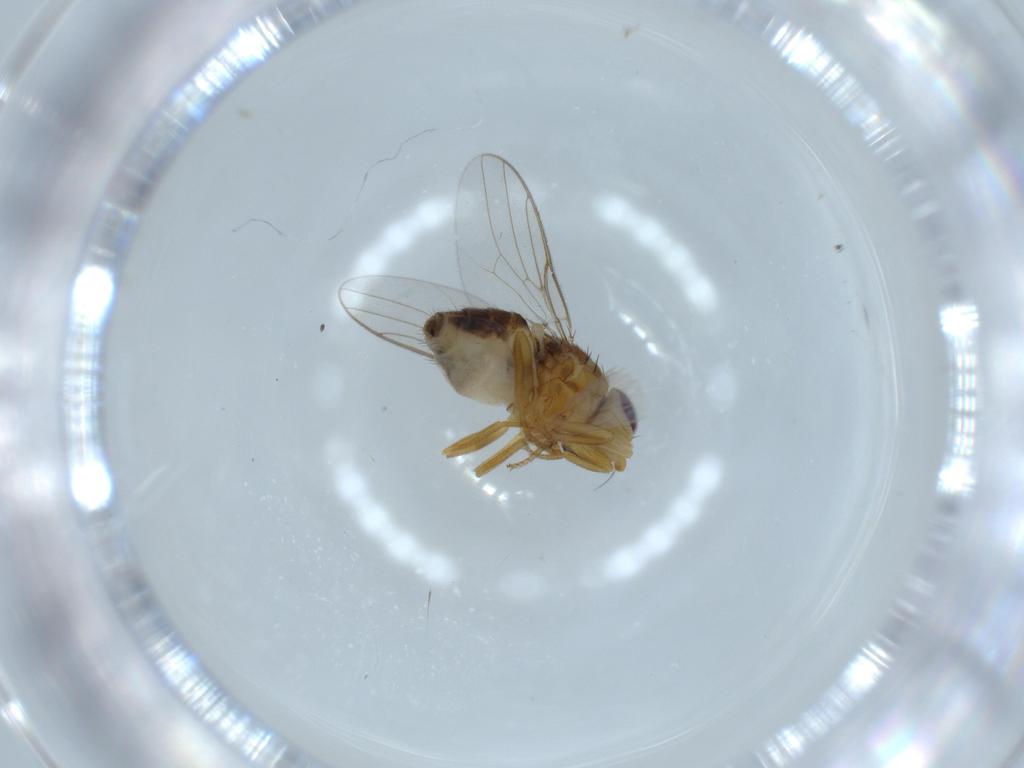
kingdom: Animalia
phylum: Arthropoda
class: Insecta
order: Diptera
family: Chloropidae
